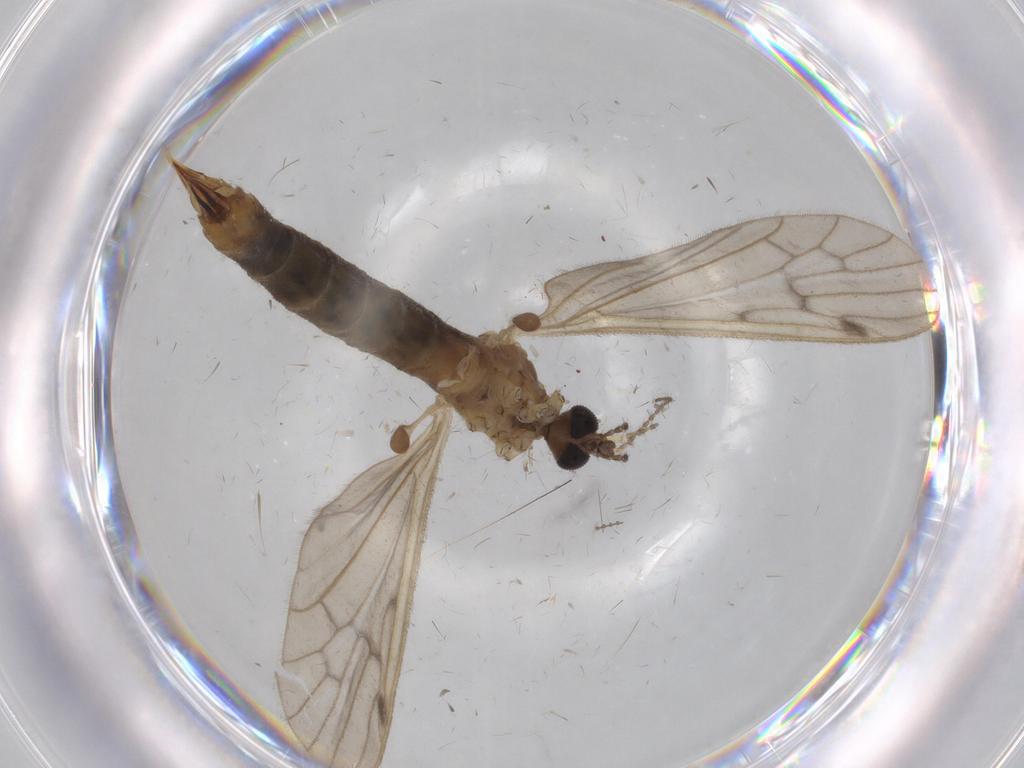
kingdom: Animalia
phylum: Arthropoda
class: Insecta
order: Diptera
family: Limoniidae
